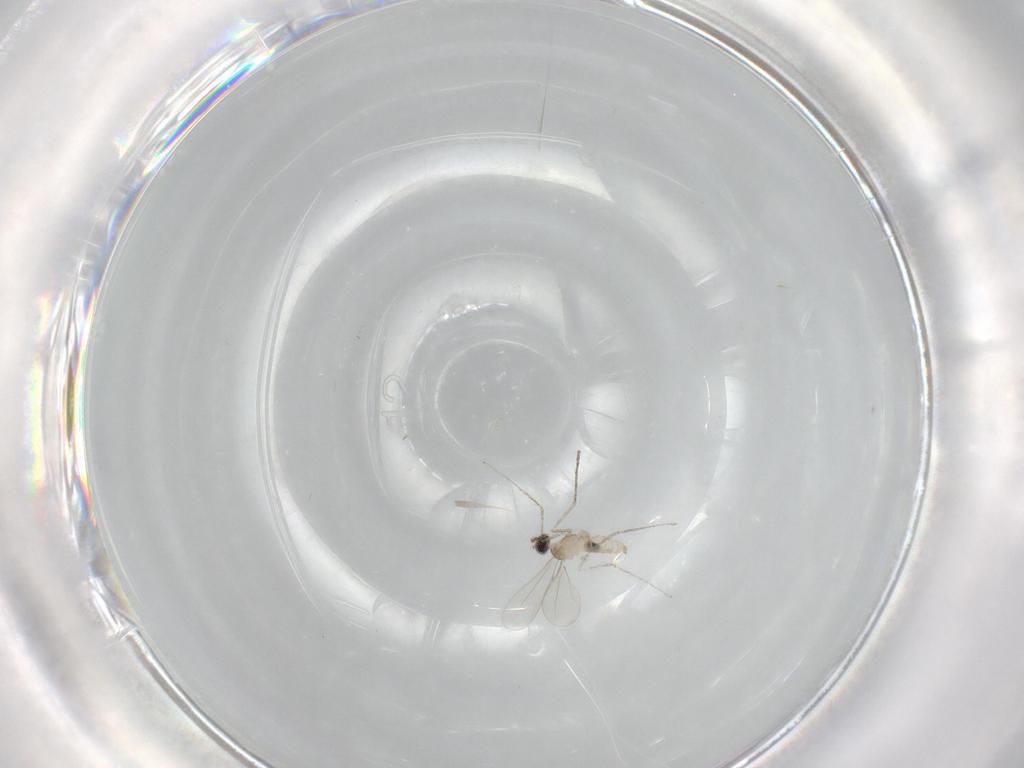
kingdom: Animalia
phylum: Arthropoda
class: Insecta
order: Diptera
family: Cecidomyiidae
